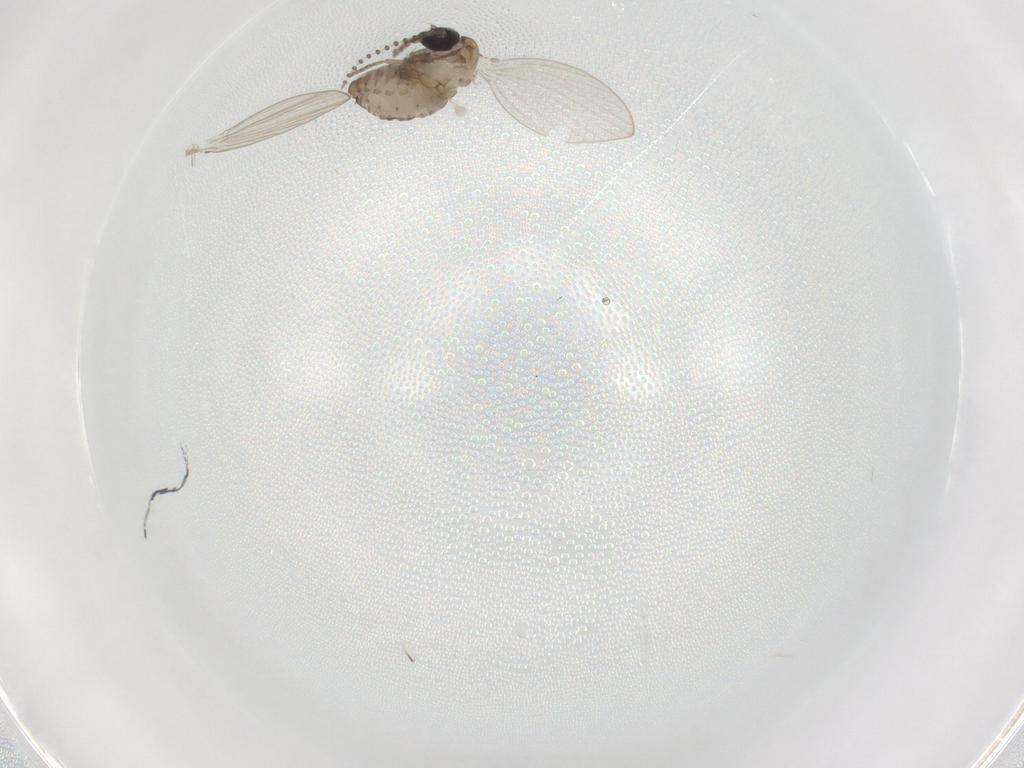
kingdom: Animalia
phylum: Arthropoda
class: Insecta
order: Diptera
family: Psychodidae
